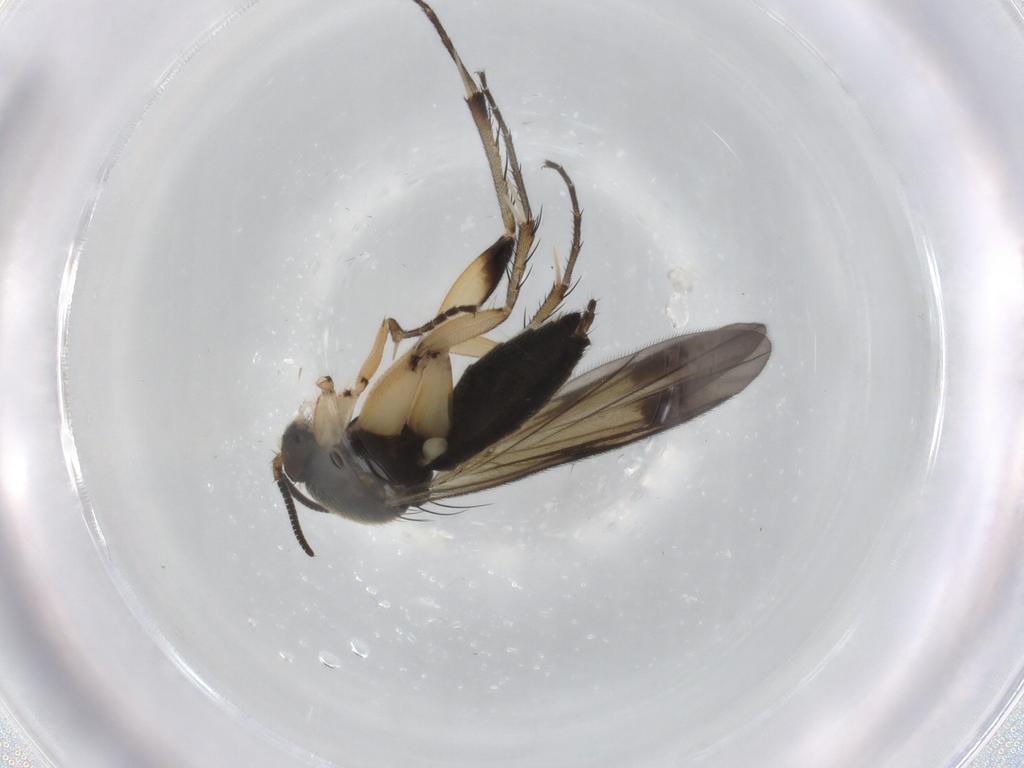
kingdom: Animalia
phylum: Arthropoda
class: Insecta
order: Diptera
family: Mycetophilidae
